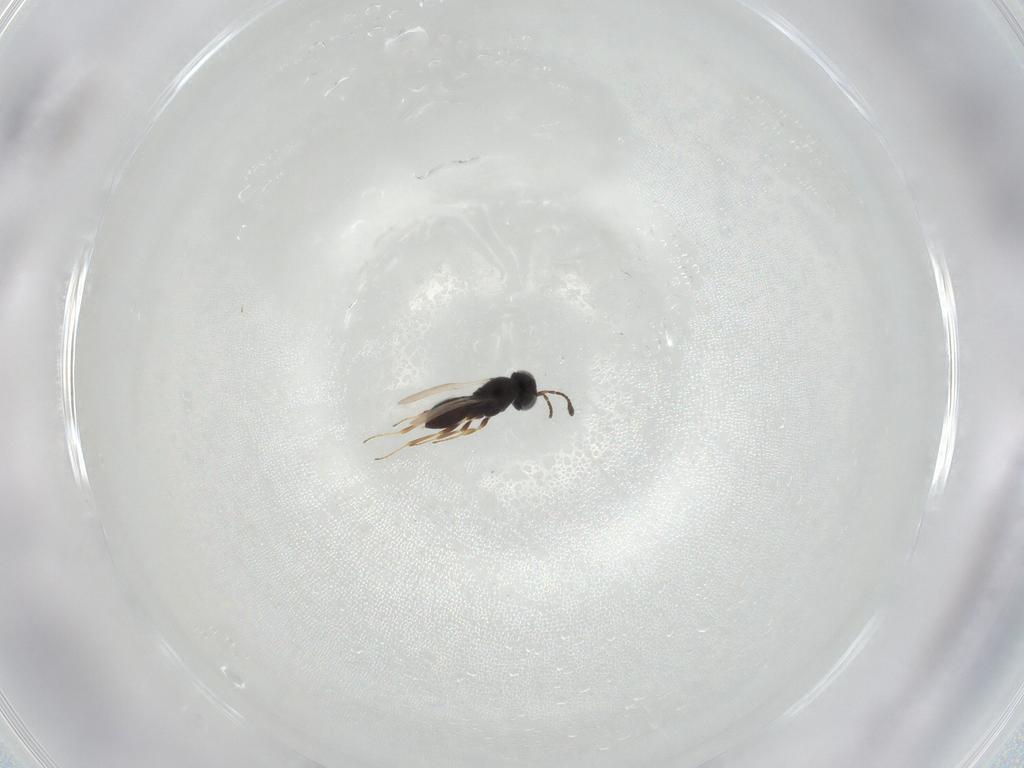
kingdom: Animalia
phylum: Arthropoda
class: Insecta
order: Hymenoptera
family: Scelionidae
